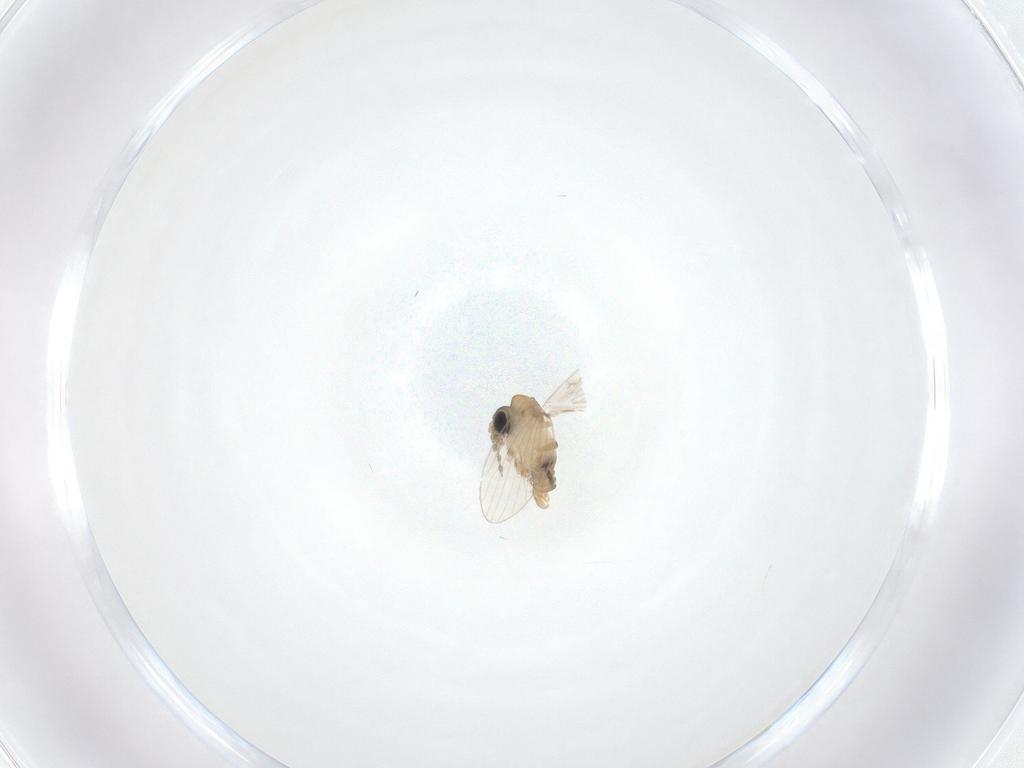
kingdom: Animalia
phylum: Arthropoda
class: Insecta
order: Diptera
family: Psychodidae
